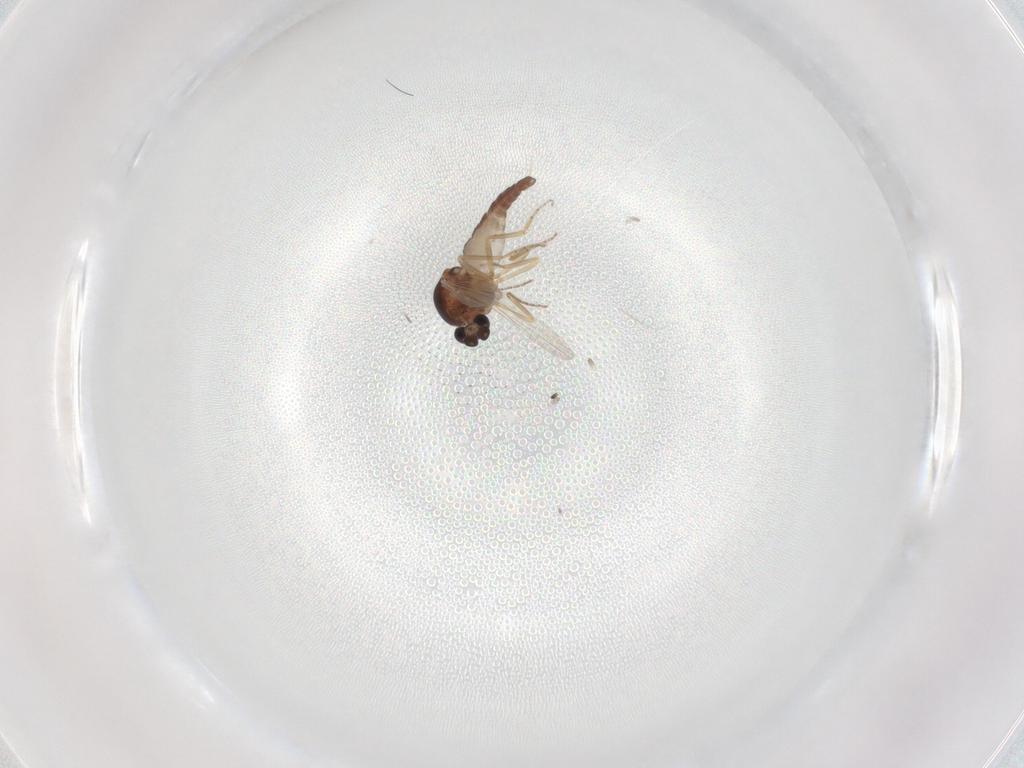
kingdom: Animalia
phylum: Arthropoda
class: Insecta
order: Diptera
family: Ceratopogonidae
